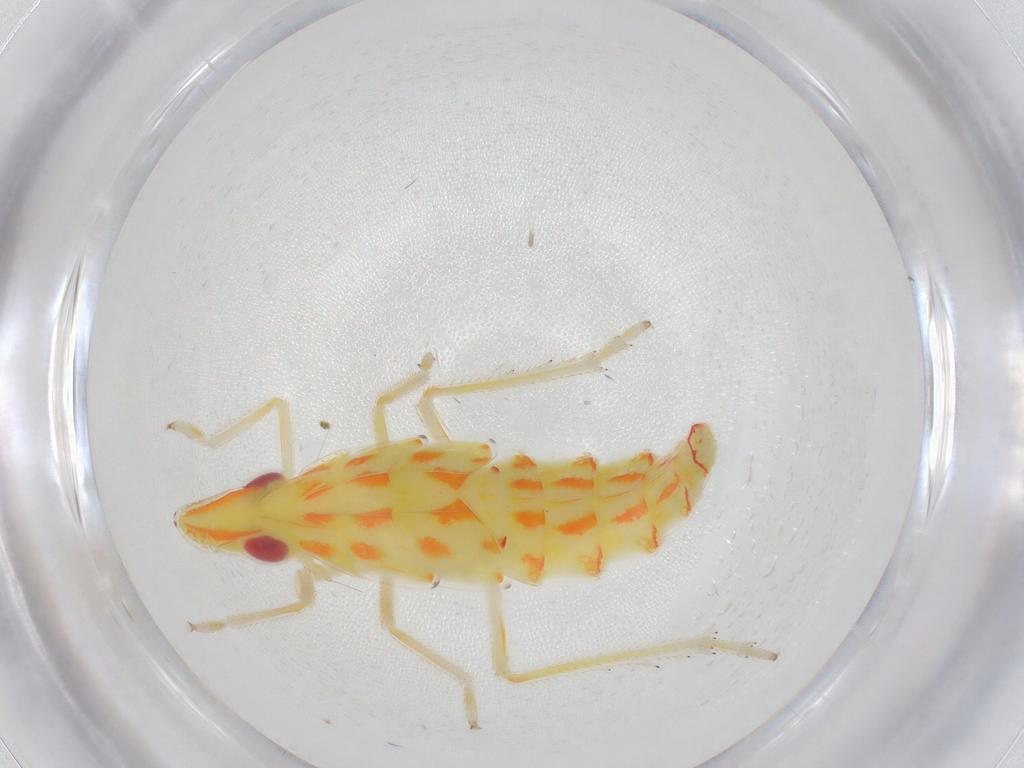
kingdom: Animalia
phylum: Arthropoda
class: Insecta
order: Hemiptera
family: Tropiduchidae
